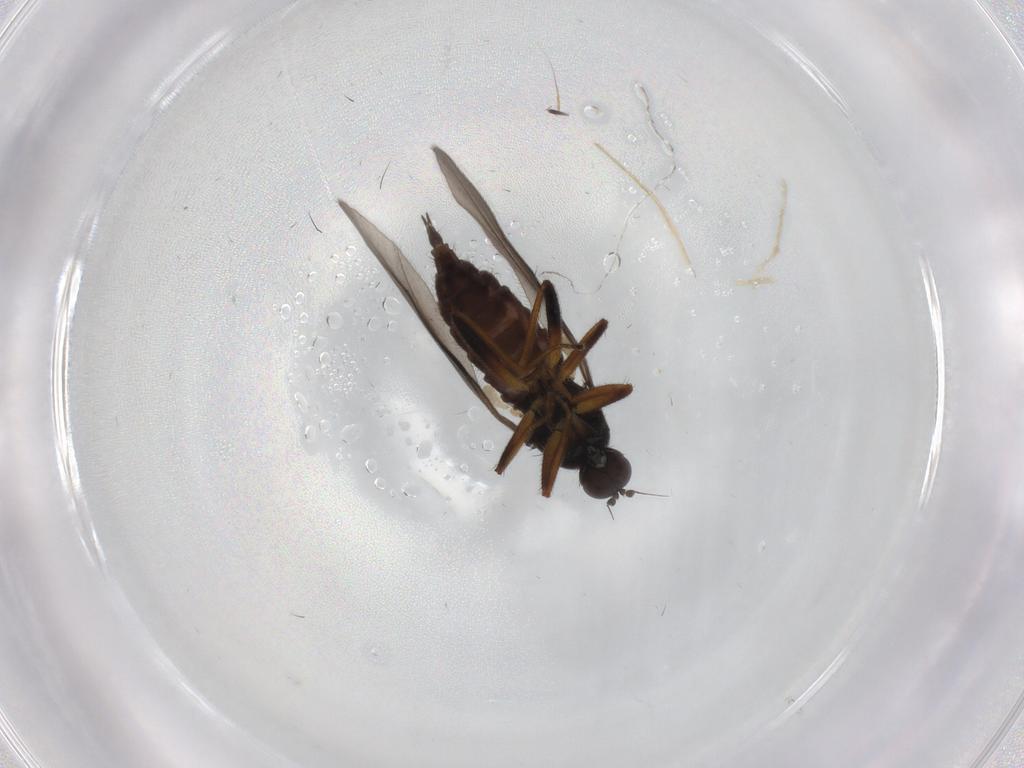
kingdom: Animalia
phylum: Arthropoda
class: Insecta
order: Diptera
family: Hybotidae
